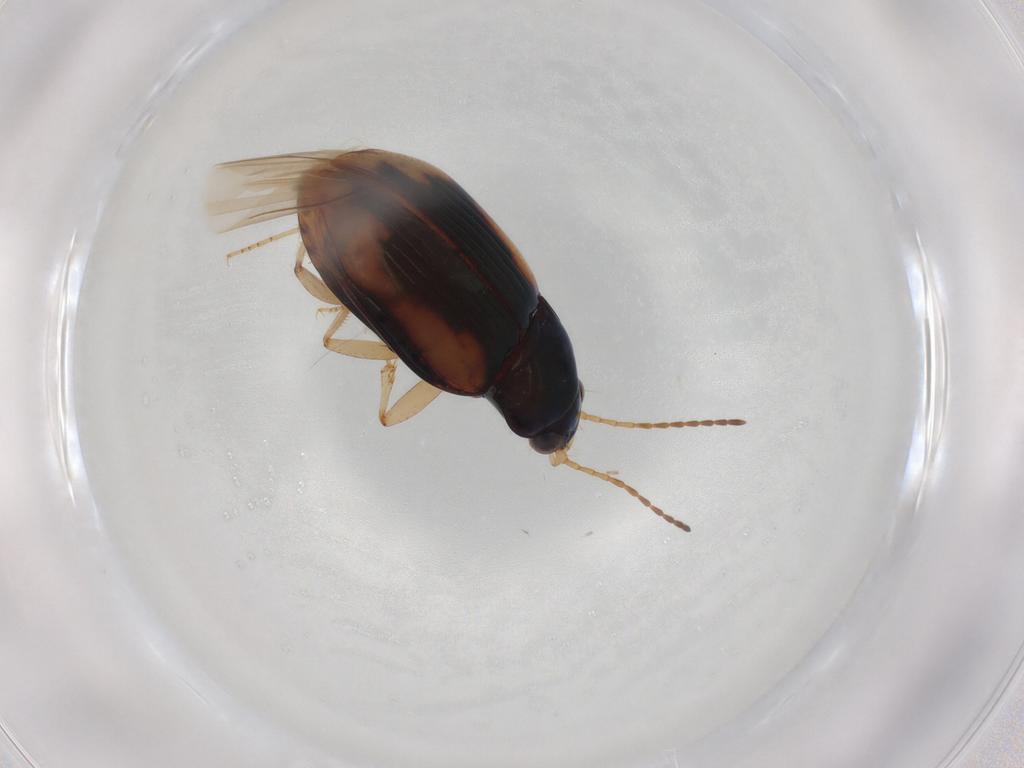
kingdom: Animalia
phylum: Arthropoda
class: Insecta
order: Coleoptera
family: Carabidae
